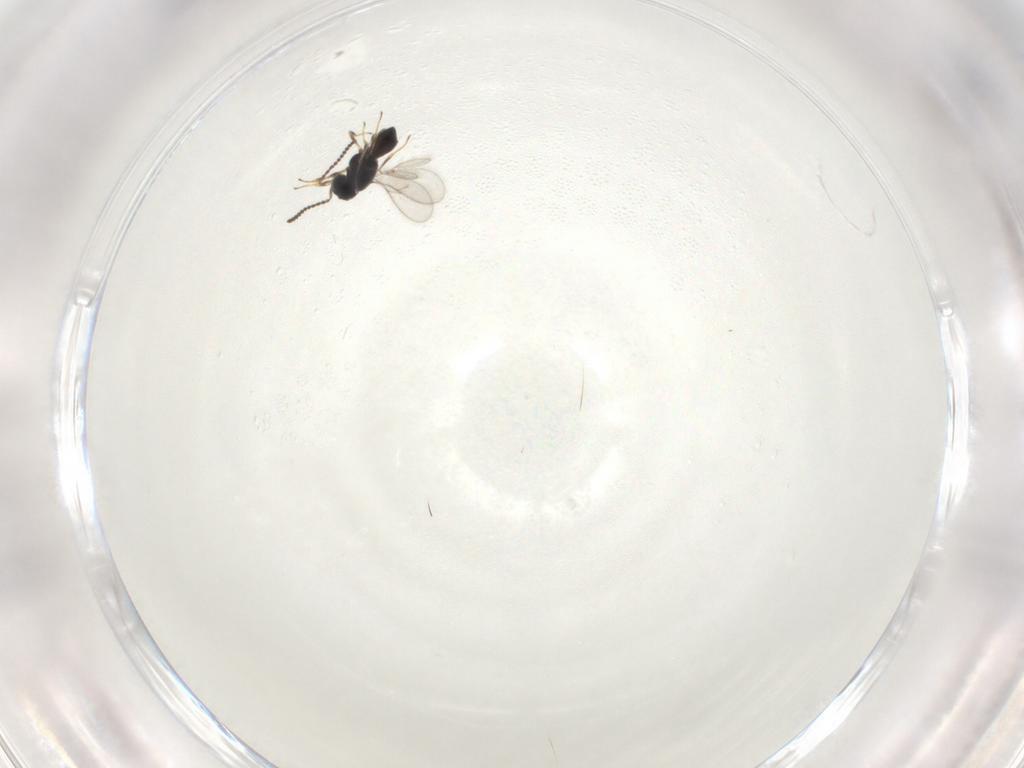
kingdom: Animalia
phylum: Arthropoda
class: Insecta
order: Hymenoptera
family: Scelionidae
